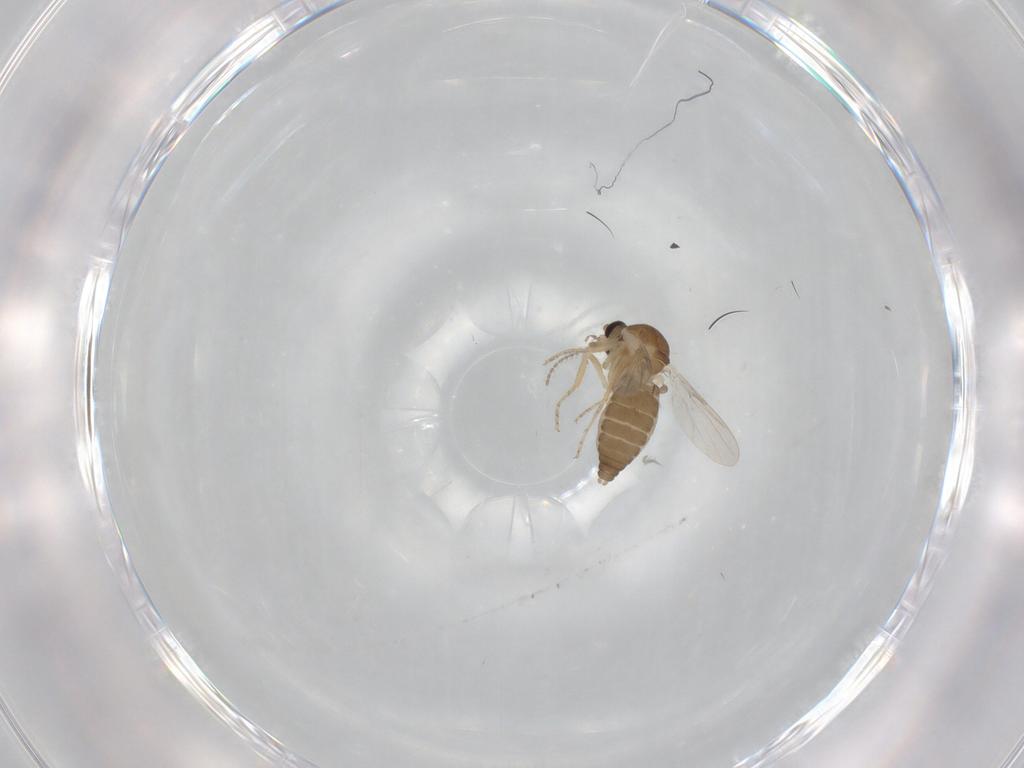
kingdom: Animalia
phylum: Arthropoda
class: Insecta
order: Diptera
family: Ceratopogonidae
